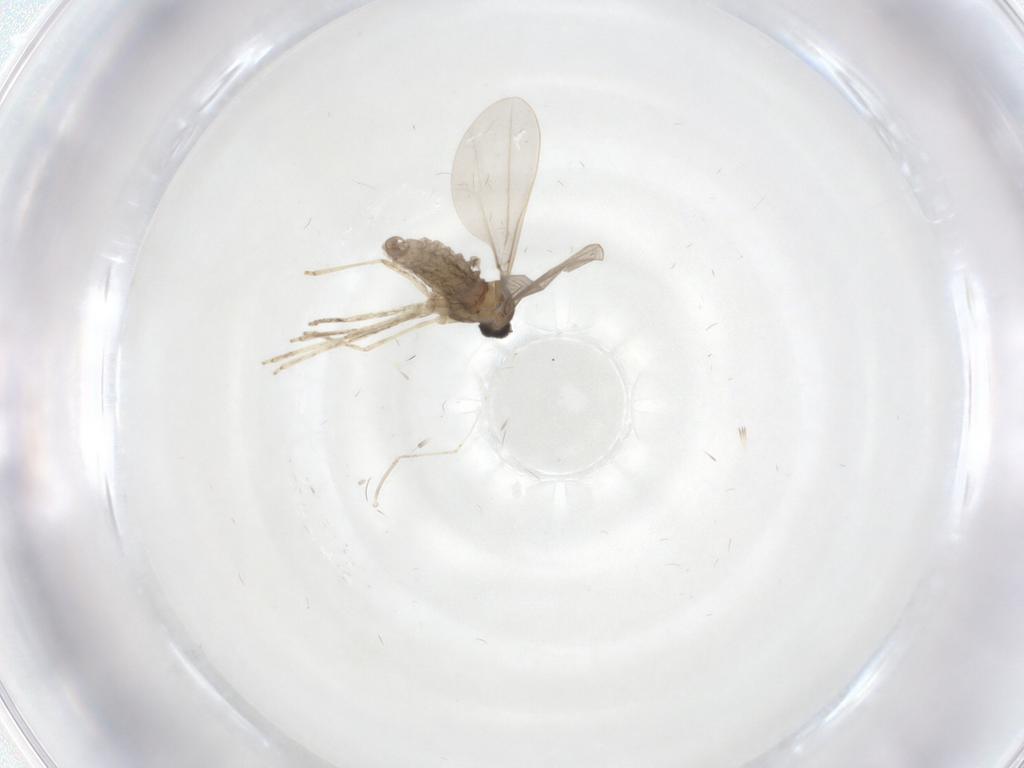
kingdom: Animalia
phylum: Arthropoda
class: Insecta
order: Diptera
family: Cecidomyiidae
